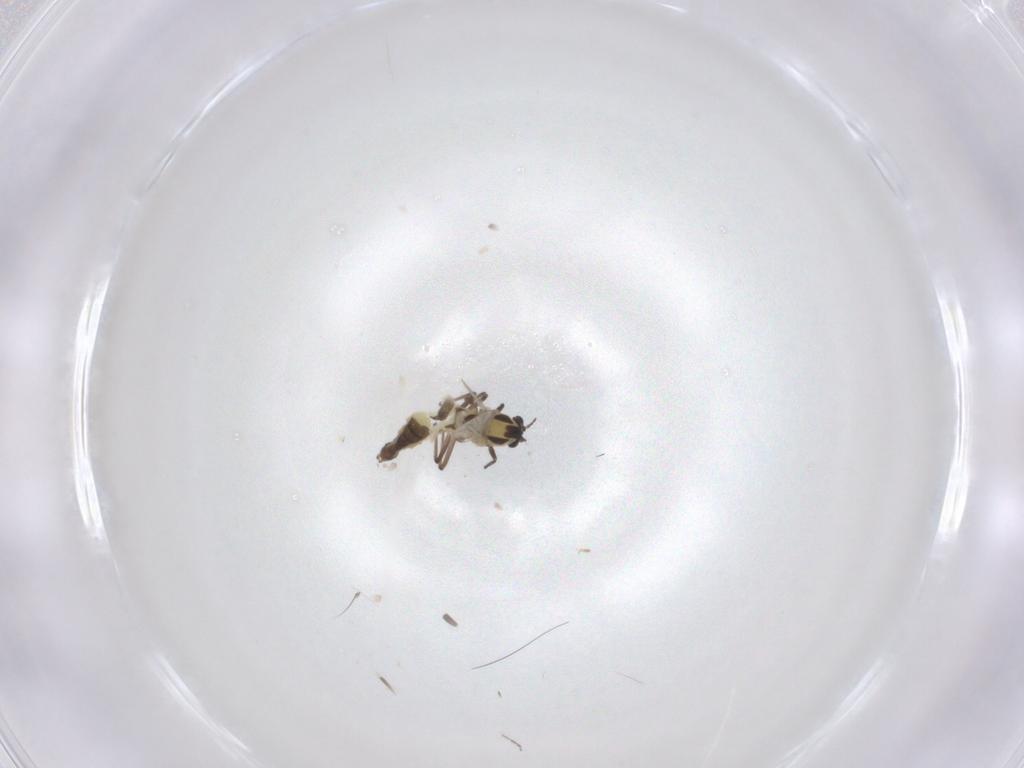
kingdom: Animalia
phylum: Arthropoda
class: Insecta
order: Diptera
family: Chironomidae
